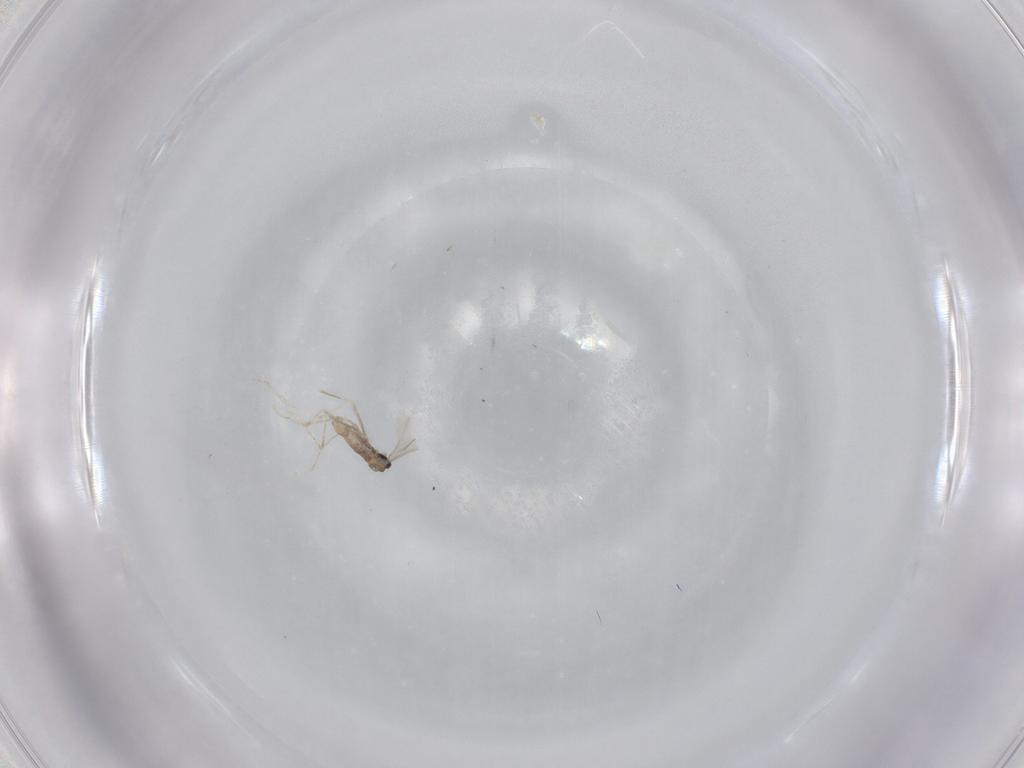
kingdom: Animalia
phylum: Arthropoda
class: Insecta
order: Diptera
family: Cecidomyiidae
